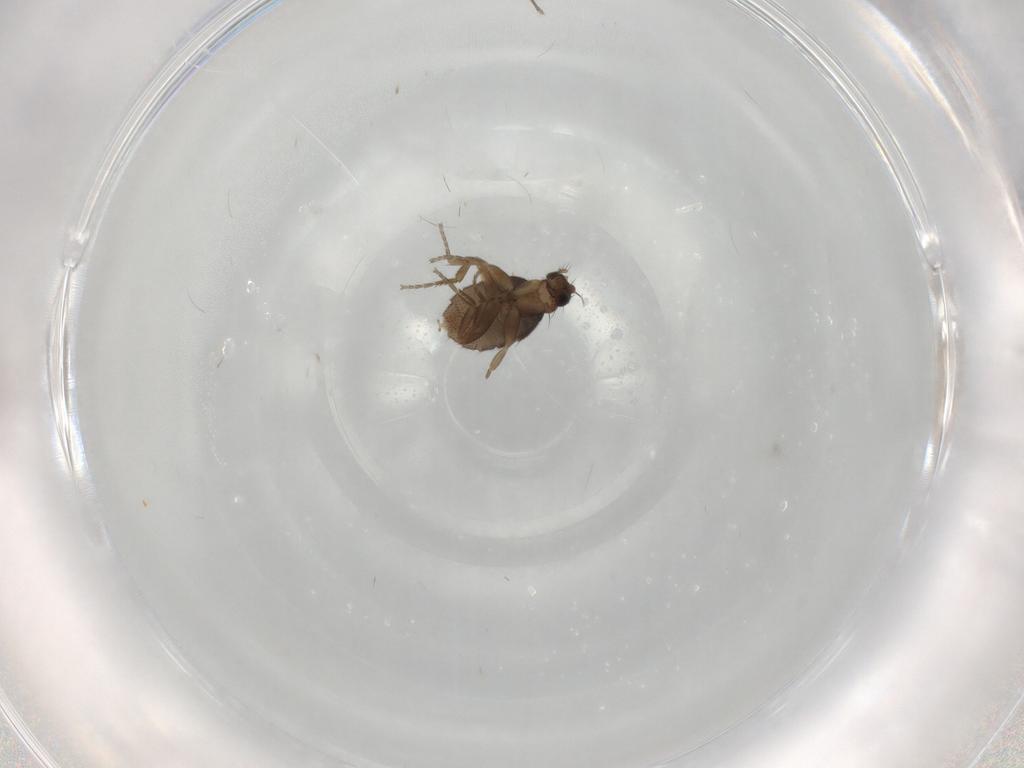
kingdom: Animalia
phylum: Arthropoda
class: Insecta
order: Diptera
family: Phoridae
